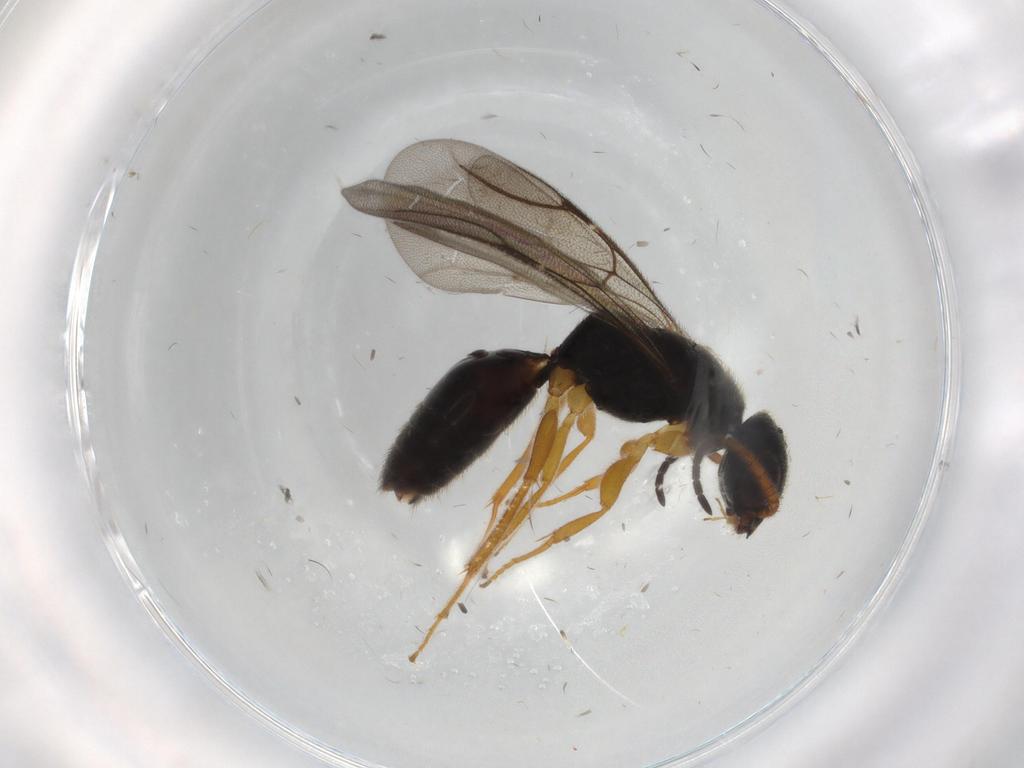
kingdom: Animalia
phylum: Arthropoda
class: Insecta
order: Hymenoptera
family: Bethylidae
